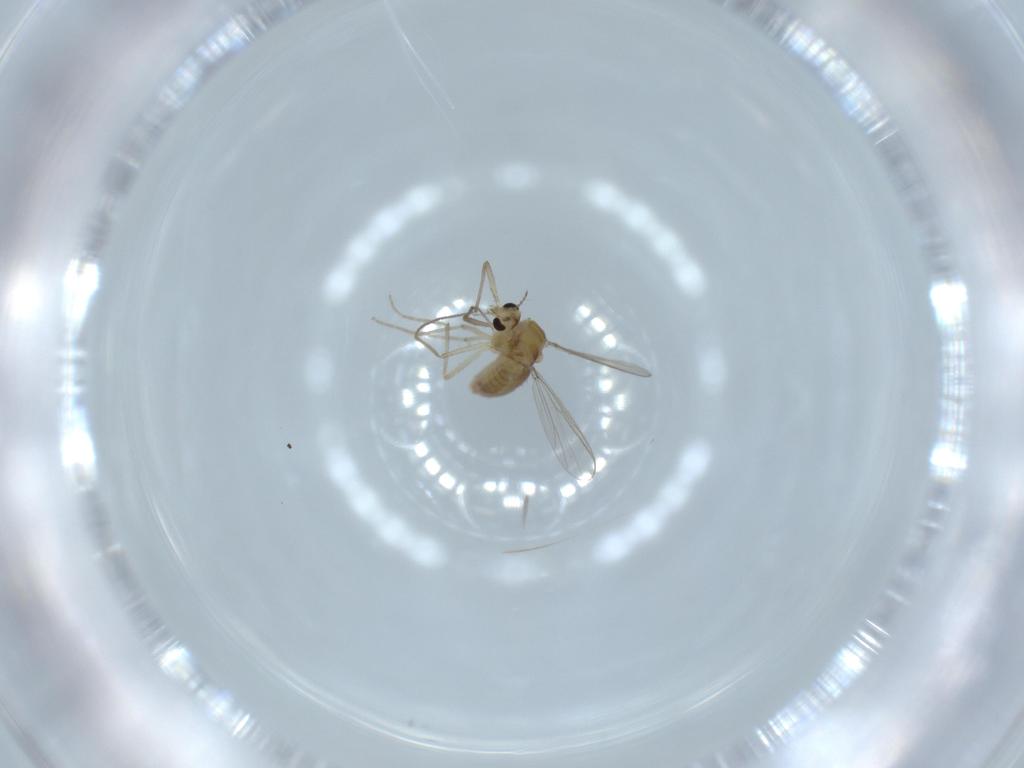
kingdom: Animalia
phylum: Arthropoda
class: Insecta
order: Diptera
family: Chironomidae
